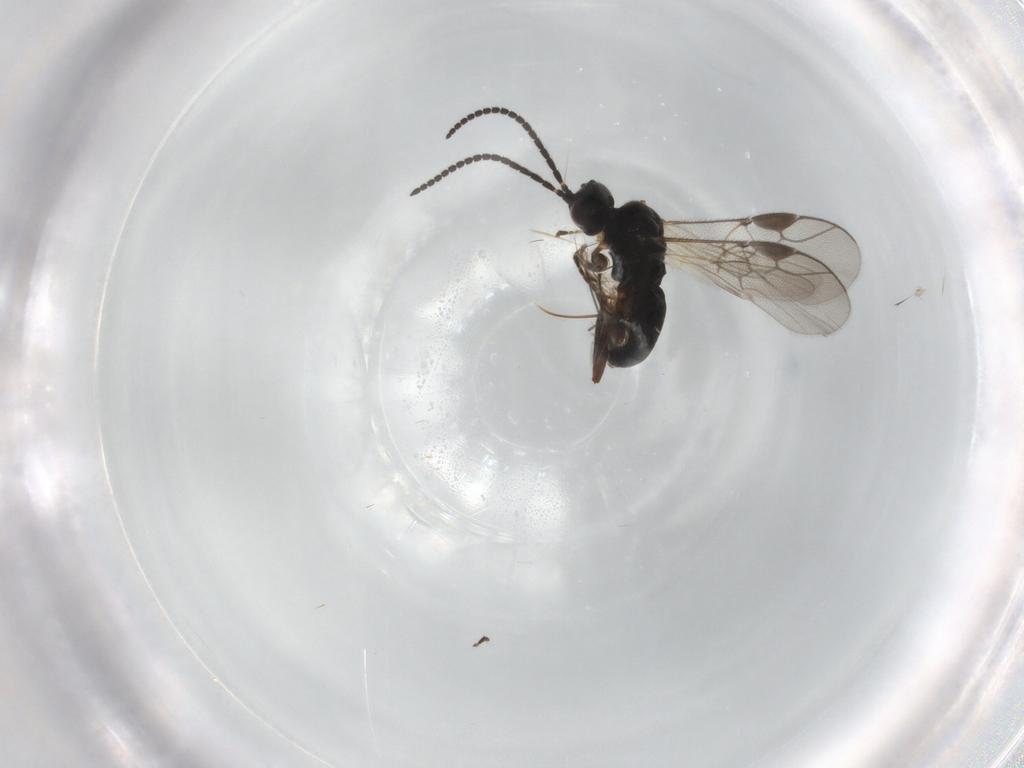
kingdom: Animalia
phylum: Arthropoda
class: Insecta
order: Hymenoptera
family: Braconidae
